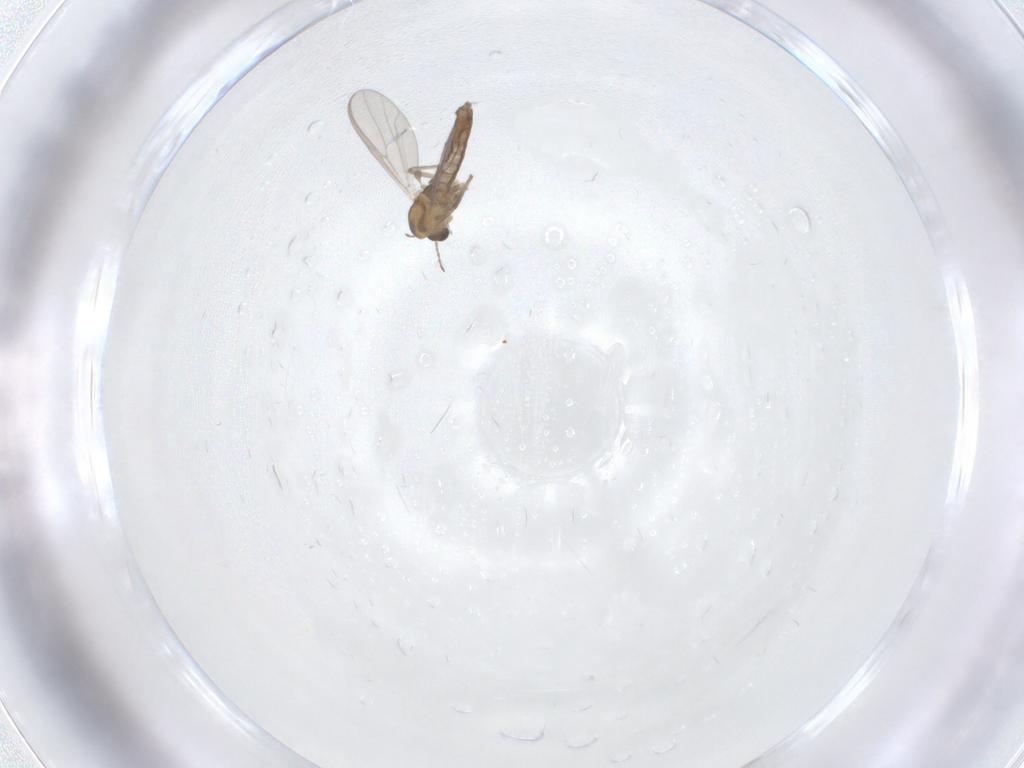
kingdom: Animalia
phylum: Arthropoda
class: Insecta
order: Diptera
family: Chironomidae
